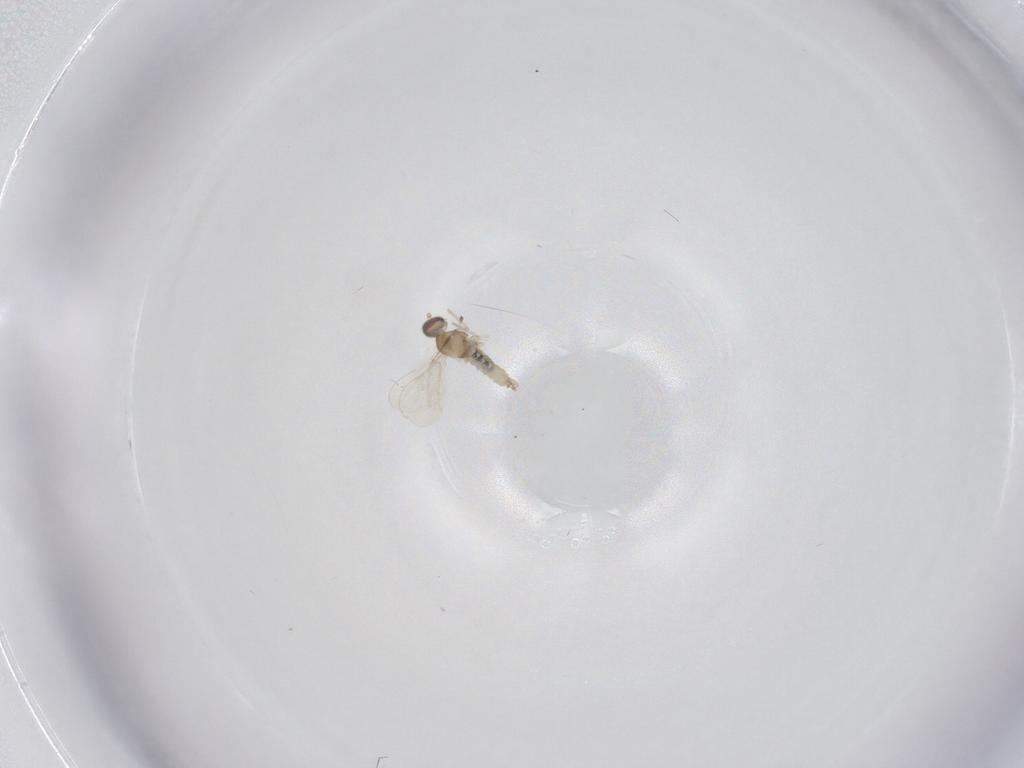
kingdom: Animalia
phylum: Arthropoda
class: Insecta
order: Diptera
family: Cecidomyiidae
